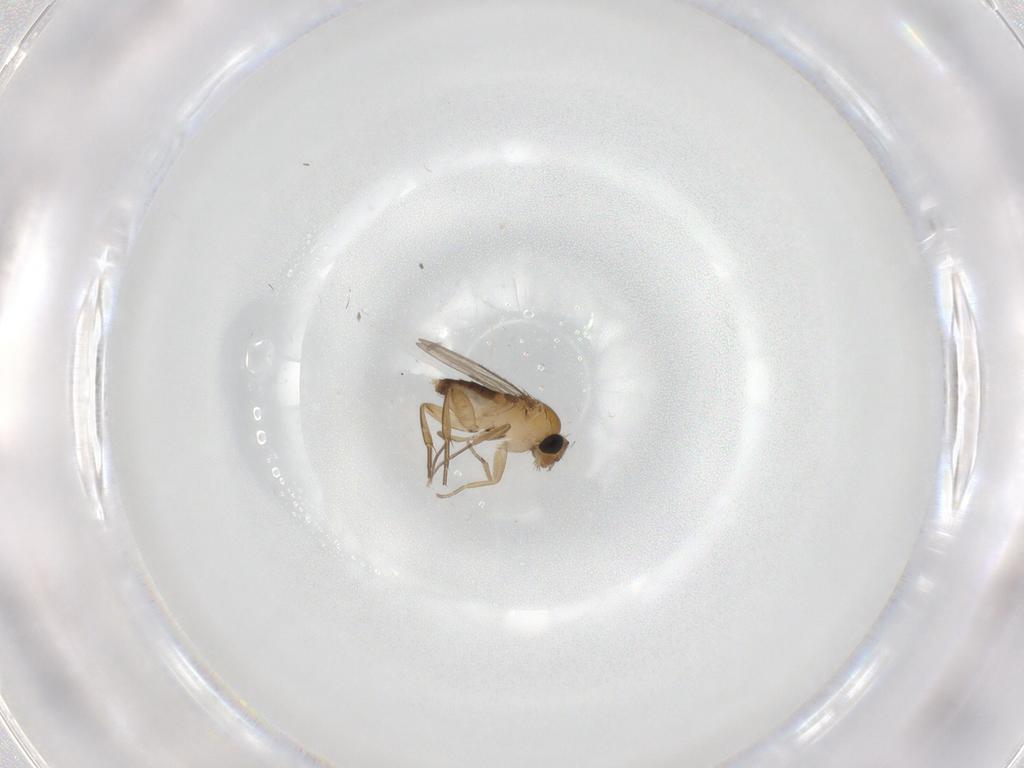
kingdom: Animalia
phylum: Arthropoda
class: Insecta
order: Diptera
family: Phoridae
